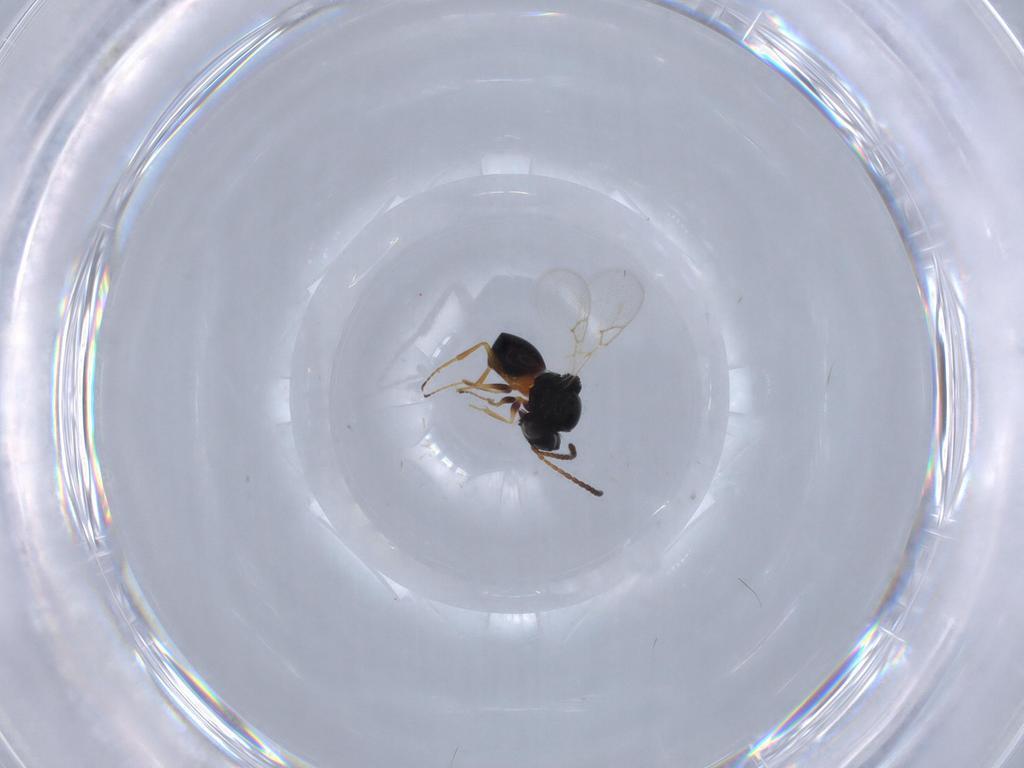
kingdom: Animalia
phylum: Arthropoda
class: Insecta
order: Hymenoptera
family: Figitidae
